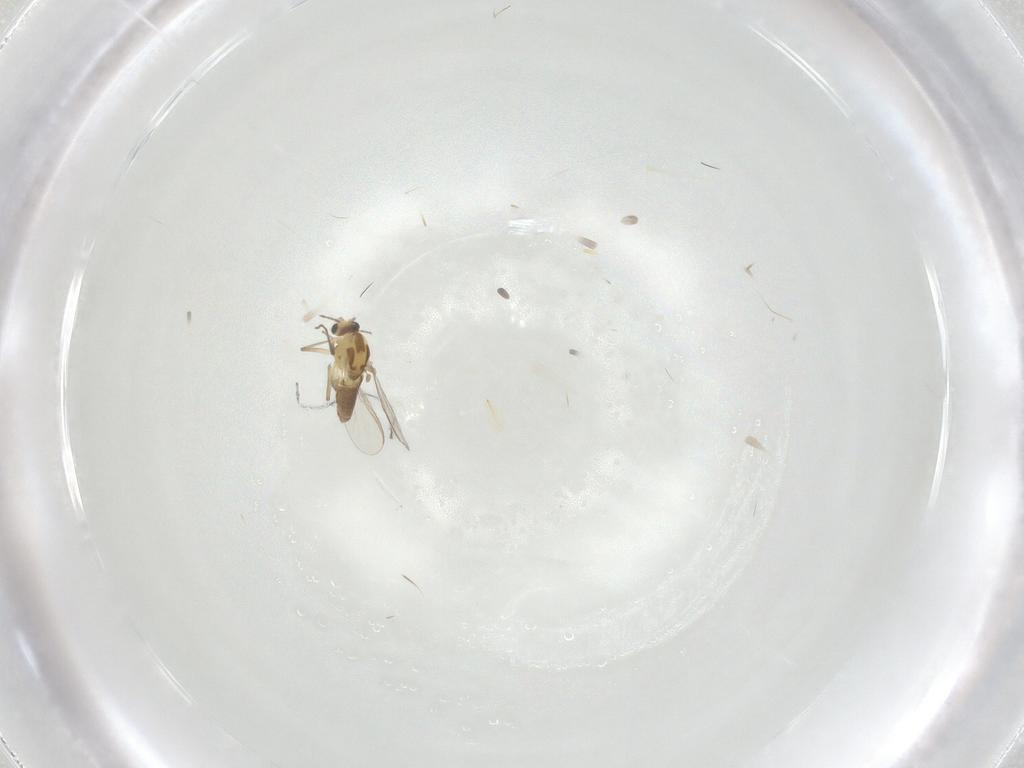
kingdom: Animalia
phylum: Arthropoda
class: Insecta
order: Diptera
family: Chironomidae
